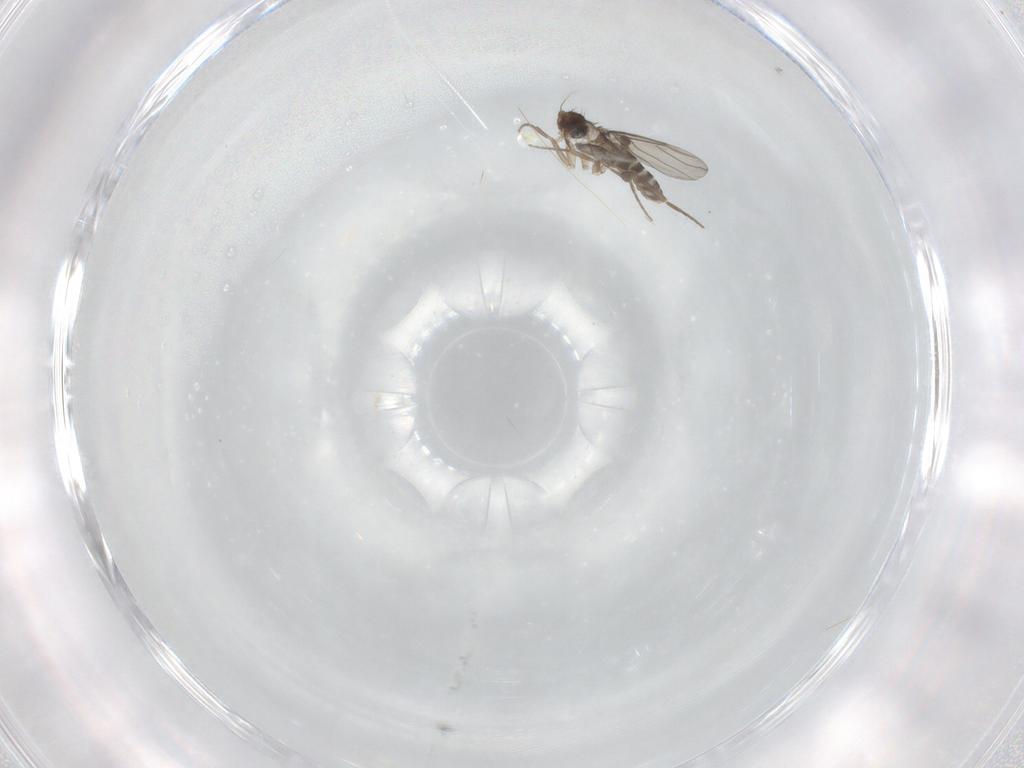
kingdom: Animalia
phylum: Arthropoda
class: Insecta
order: Diptera
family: Phoridae
